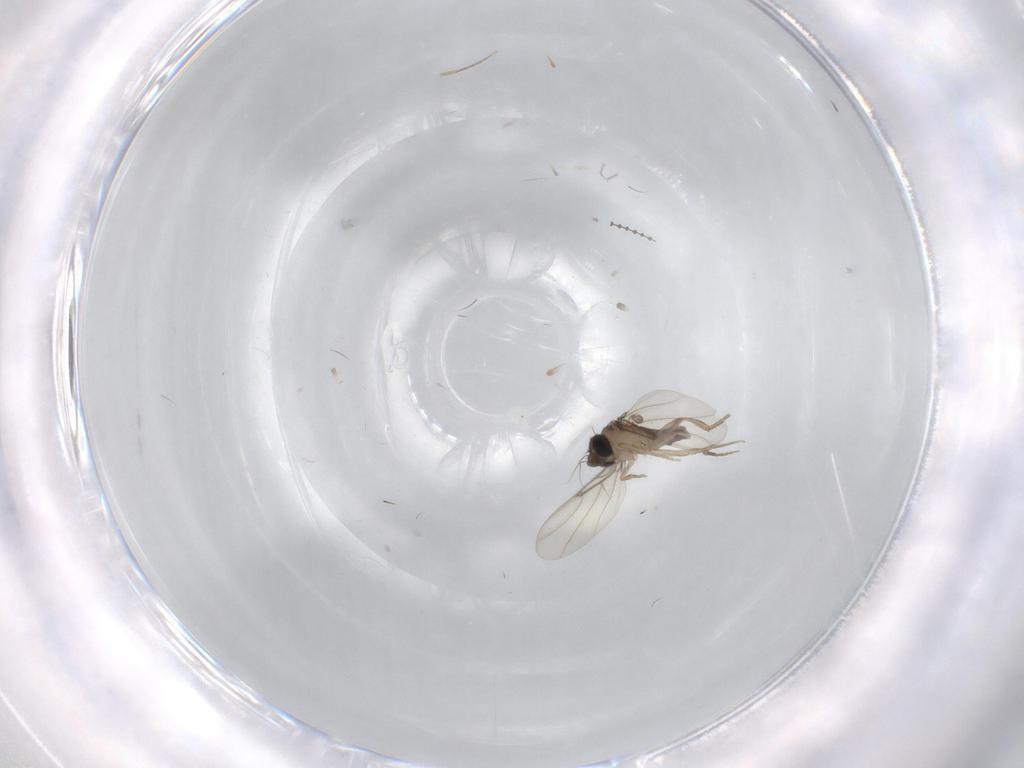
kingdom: Animalia
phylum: Arthropoda
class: Insecta
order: Diptera
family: Phoridae
